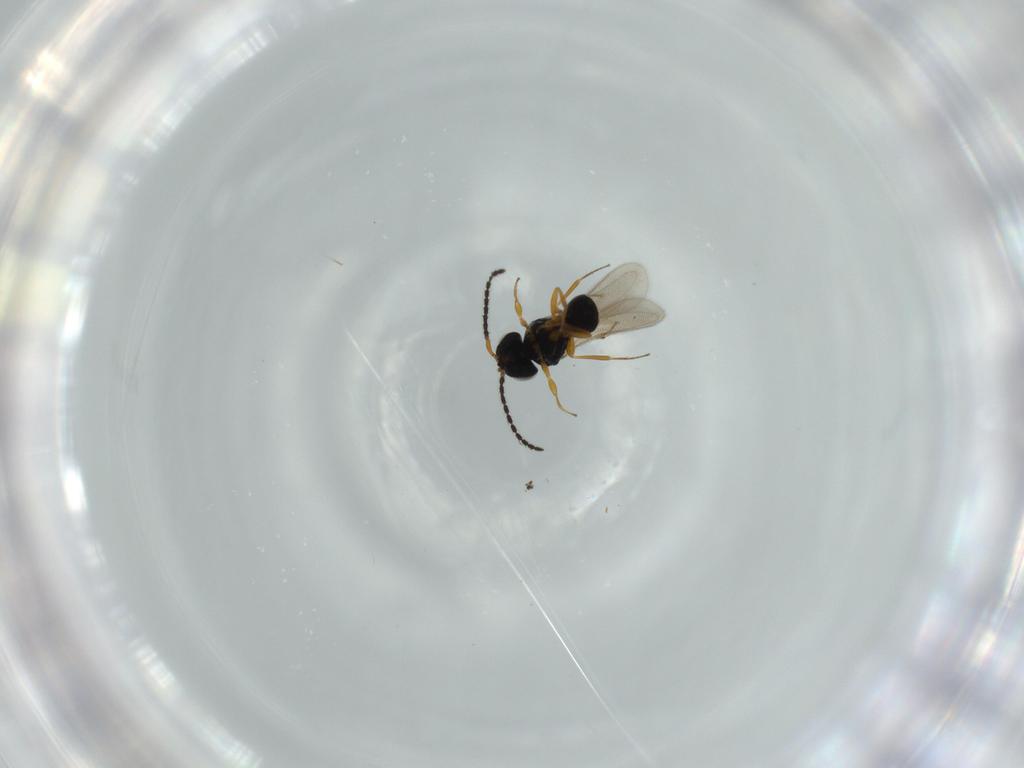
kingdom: Animalia
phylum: Arthropoda
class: Insecta
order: Hymenoptera
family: Scelionidae
